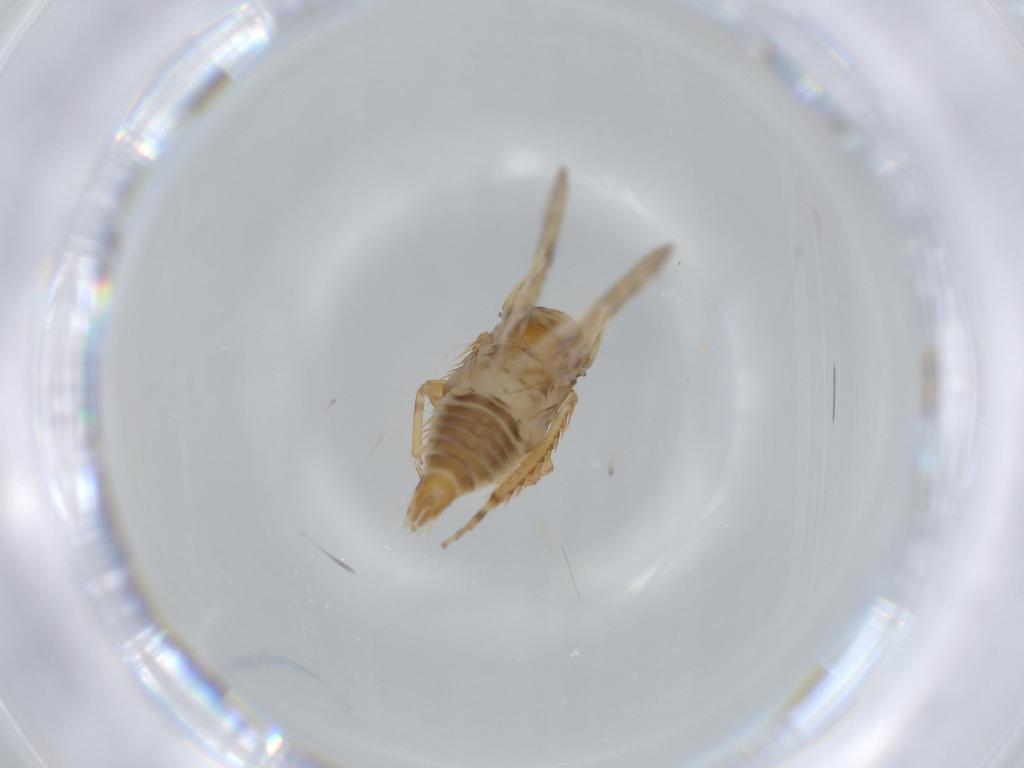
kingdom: Animalia
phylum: Arthropoda
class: Insecta
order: Hemiptera
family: Cicadellidae
